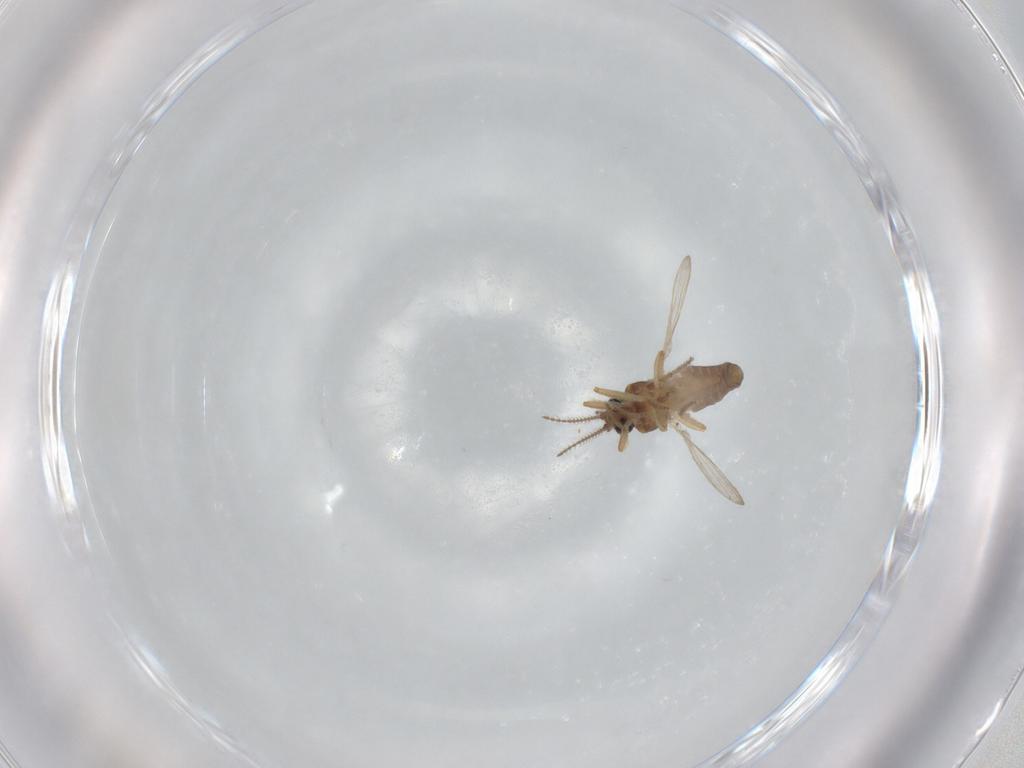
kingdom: Animalia
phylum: Arthropoda
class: Insecta
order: Diptera
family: Ceratopogonidae
